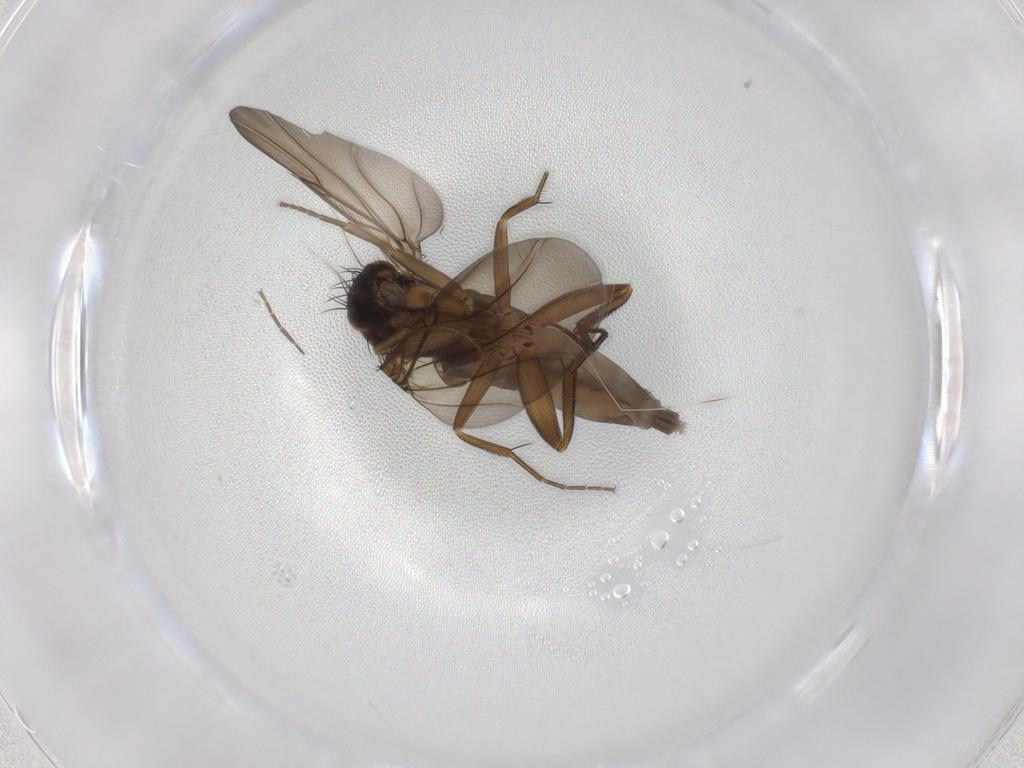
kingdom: Animalia
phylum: Arthropoda
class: Insecta
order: Diptera
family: Phoridae
